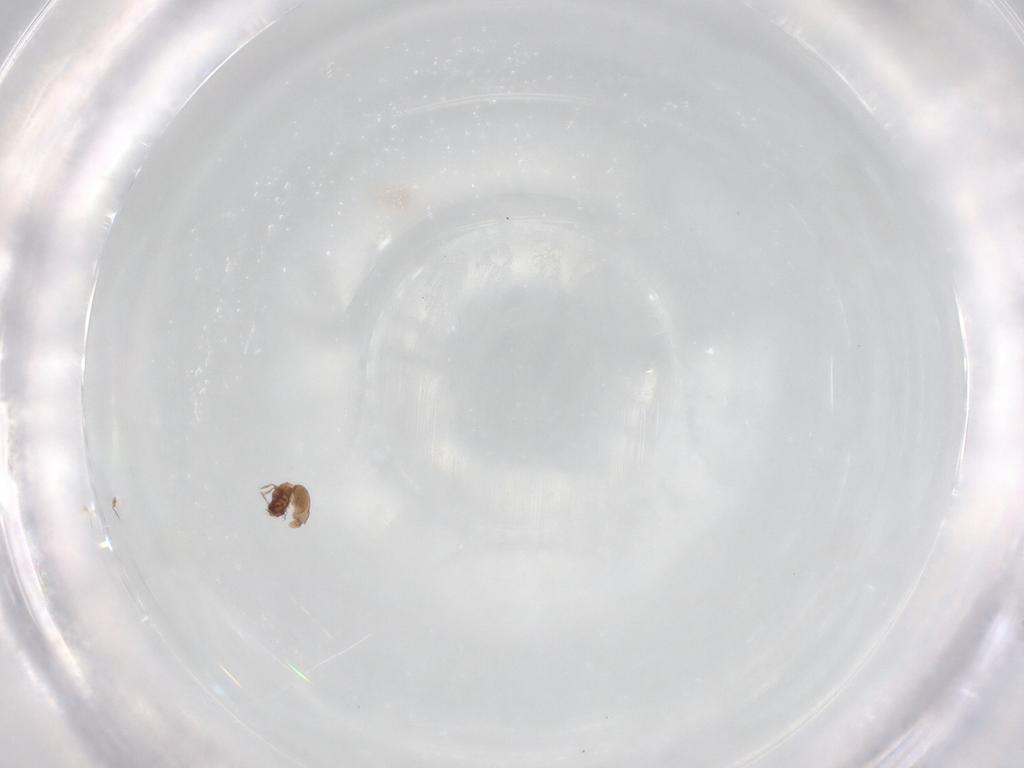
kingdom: Animalia
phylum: Arthropoda
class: Arachnida
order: Sarcoptiformes
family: Ceratozetidae
